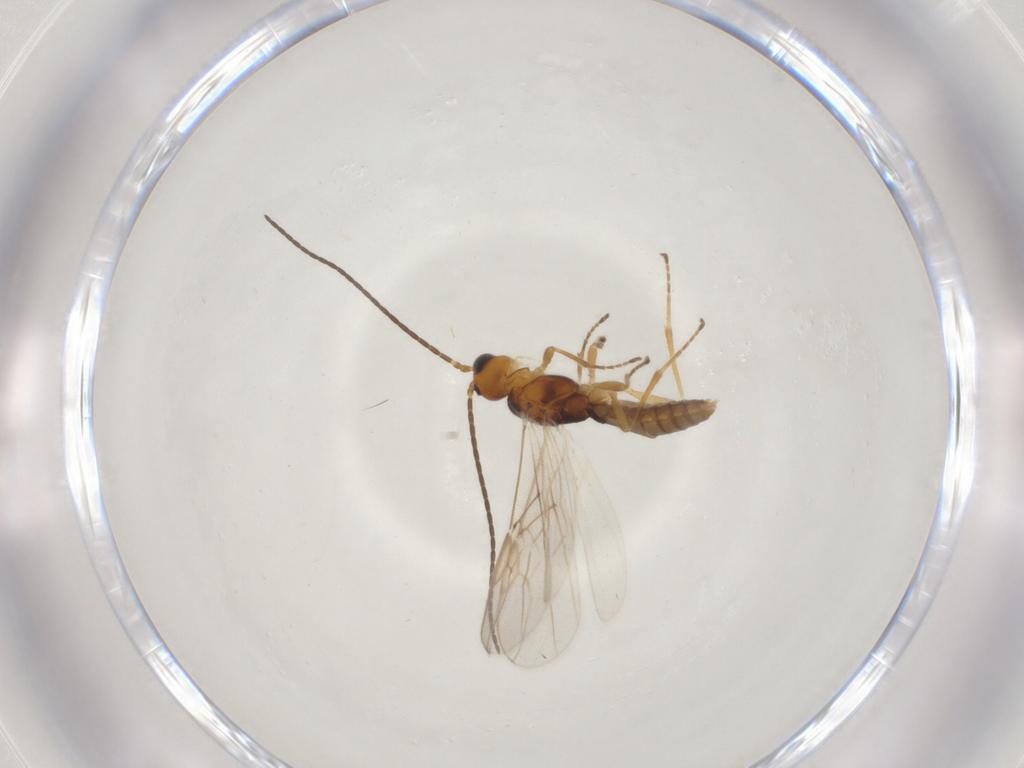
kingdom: Animalia
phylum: Arthropoda
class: Insecta
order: Hymenoptera
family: Braconidae
